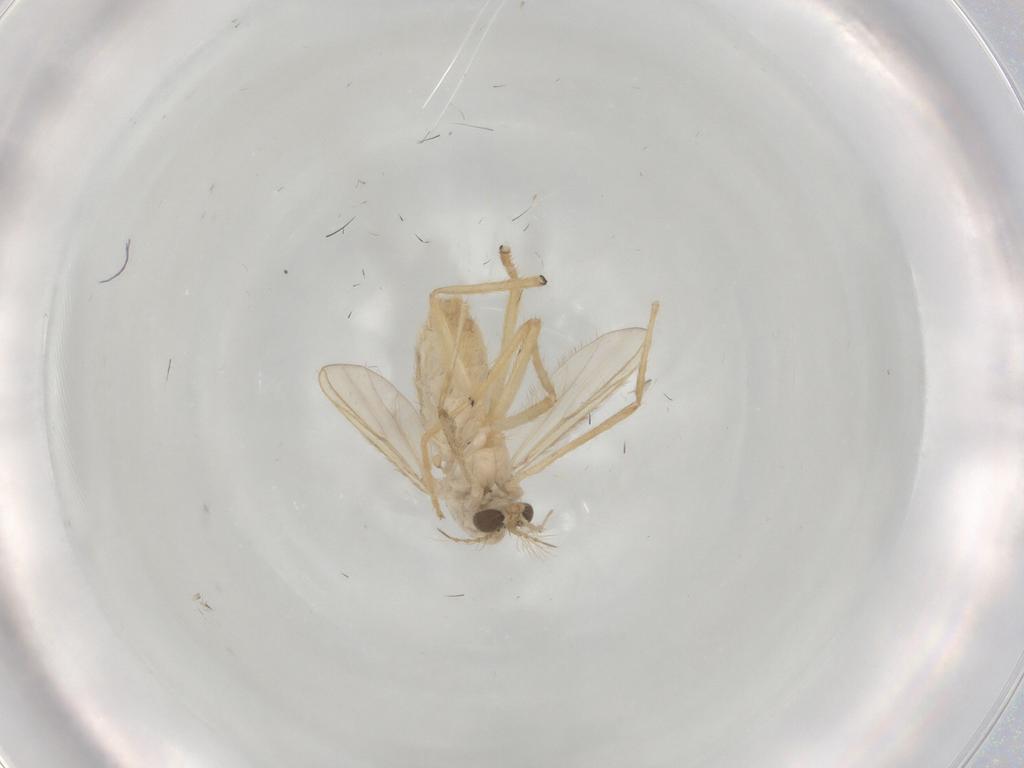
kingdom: Animalia
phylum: Arthropoda
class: Insecta
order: Diptera
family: Chironomidae
